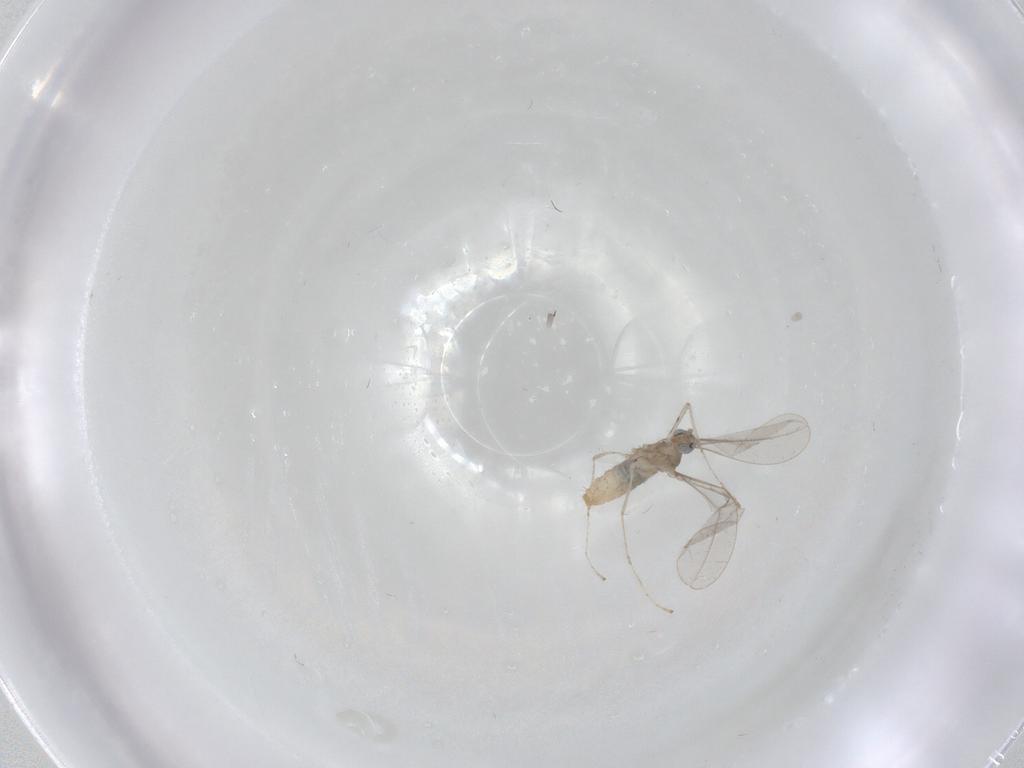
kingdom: Animalia
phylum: Arthropoda
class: Insecta
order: Diptera
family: Cecidomyiidae
